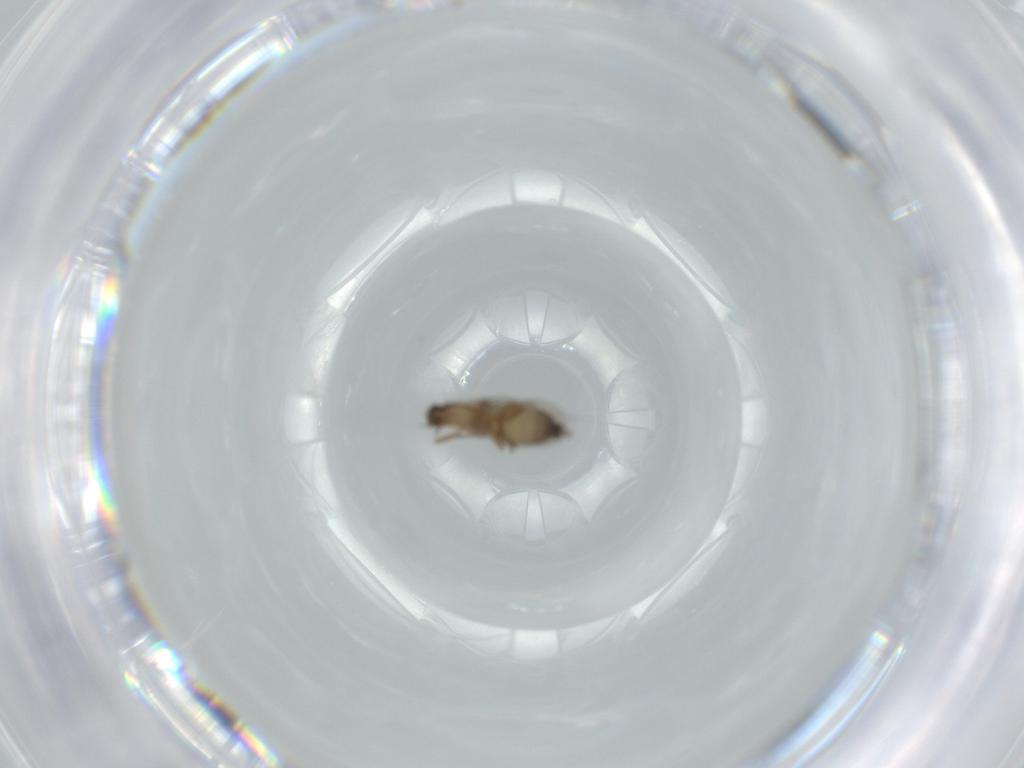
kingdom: Animalia
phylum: Arthropoda
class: Insecta
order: Diptera
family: Phoridae
